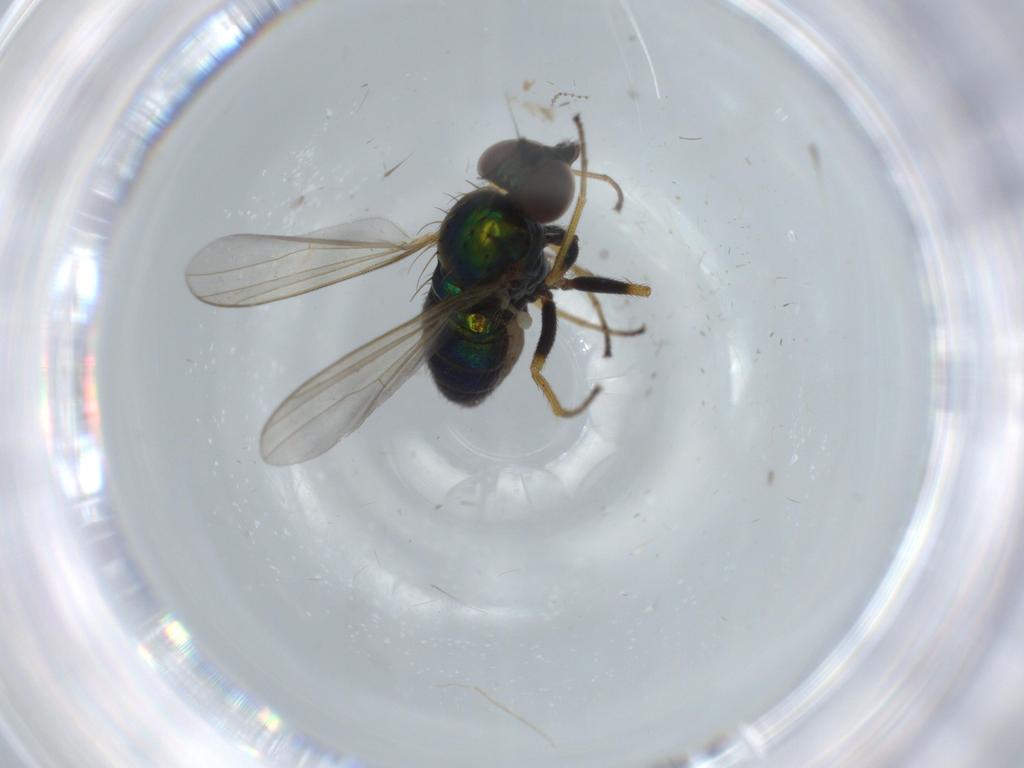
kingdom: Animalia
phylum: Arthropoda
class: Insecta
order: Diptera
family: Dolichopodidae
